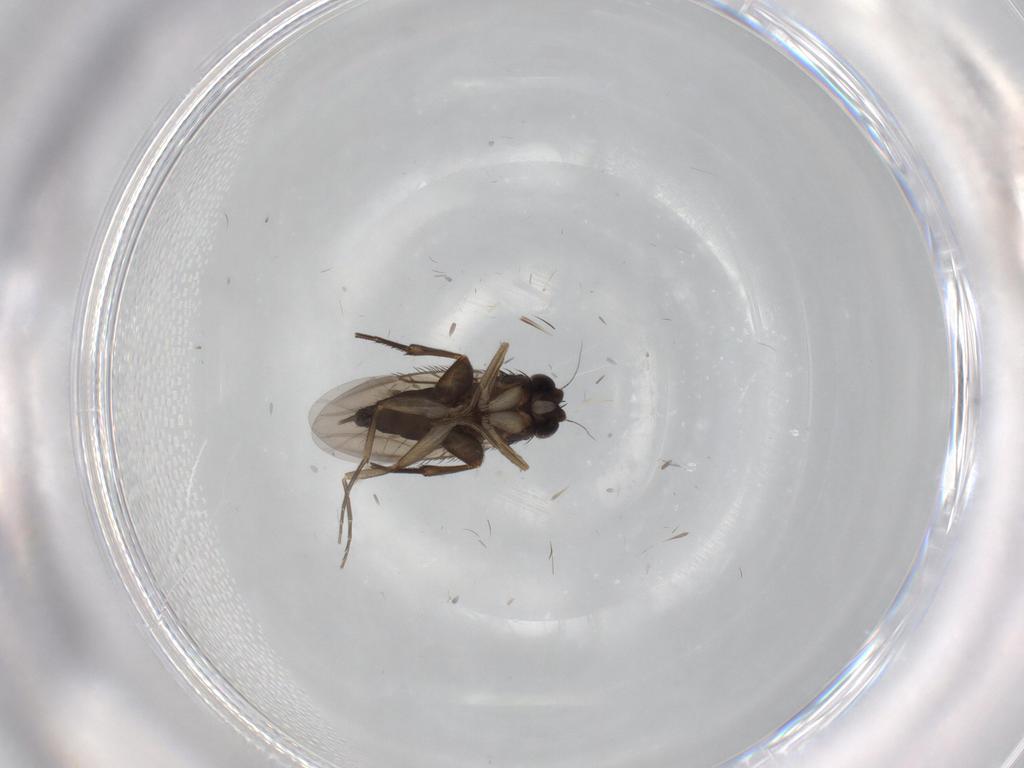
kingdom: Animalia
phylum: Arthropoda
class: Insecta
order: Diptera
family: Phoridae
